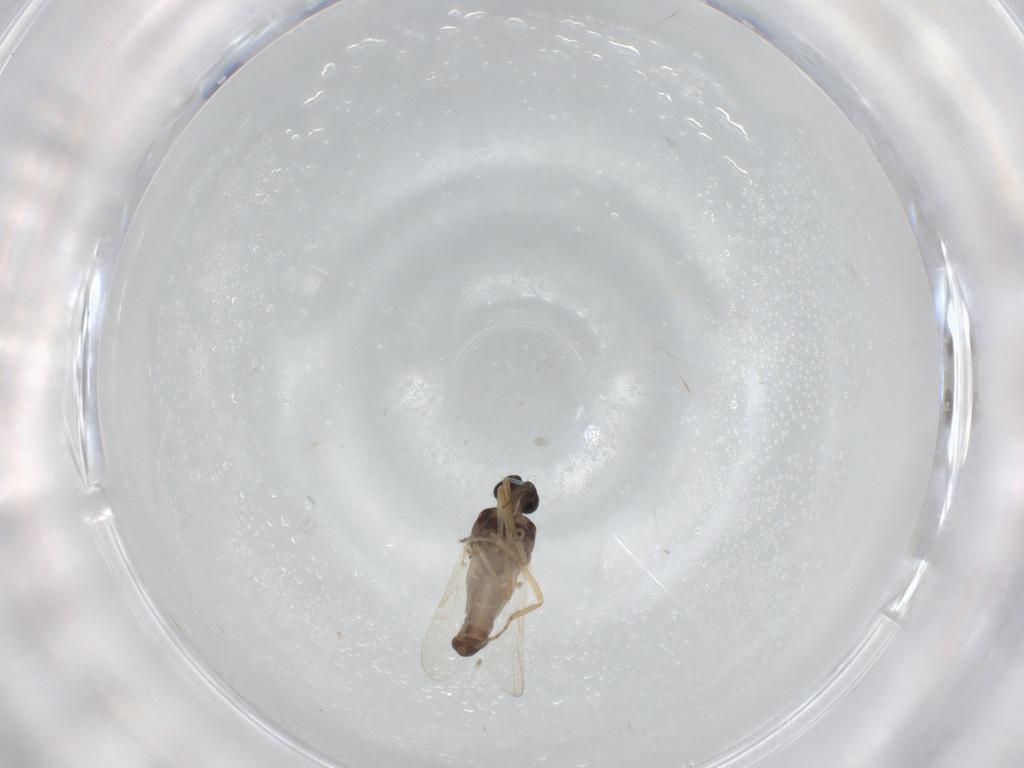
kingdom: Animalia
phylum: Arthropoda
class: Insecta
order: Diptera
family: Ceratopogonidae
